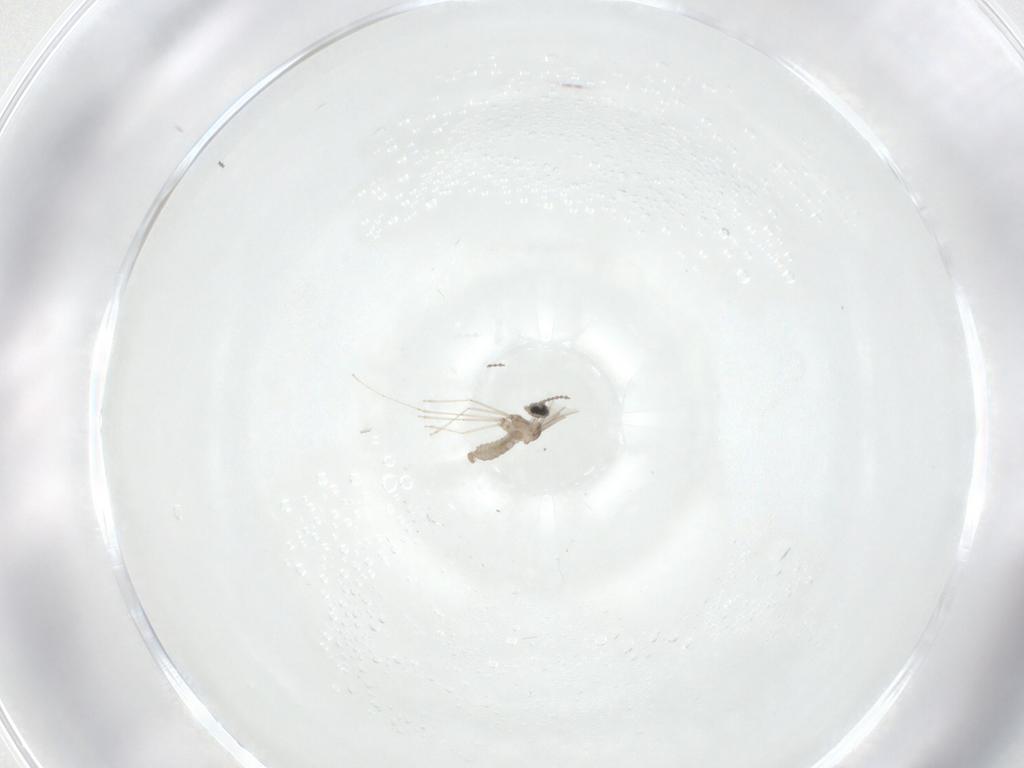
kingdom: Animalia
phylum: Arthropoda
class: Insecta
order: Diptera
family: Cecidomyiidae
